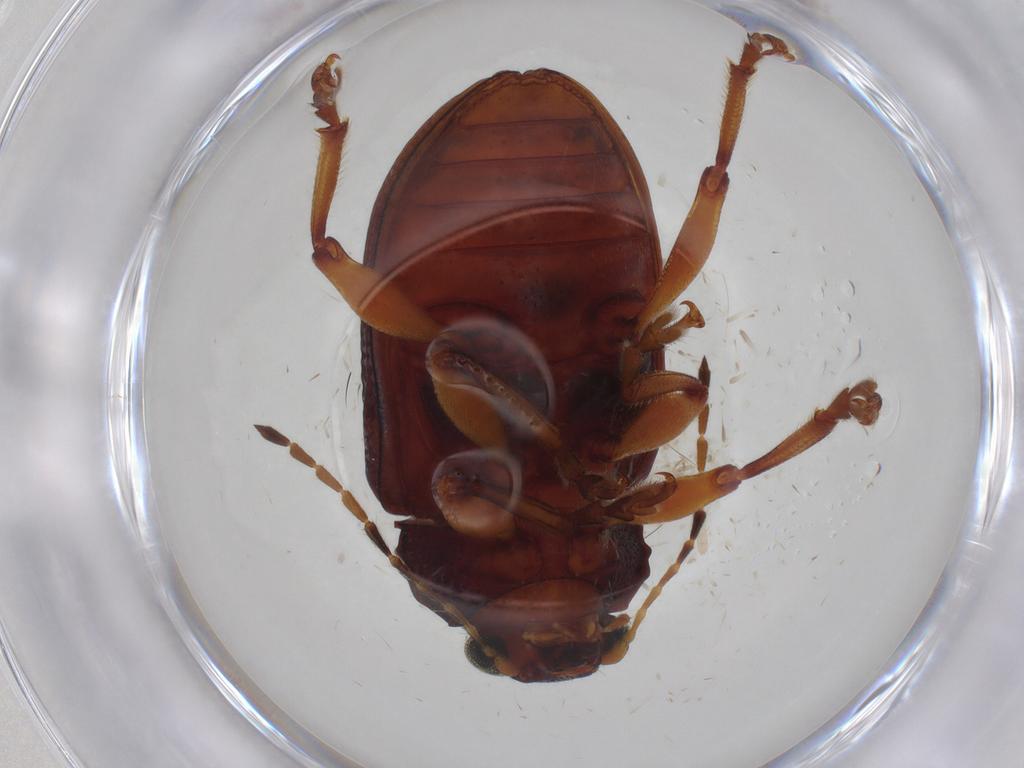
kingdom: Animalia
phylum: Arthropoda
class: Insecta
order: Coleoptera
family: Chrysomelidae
